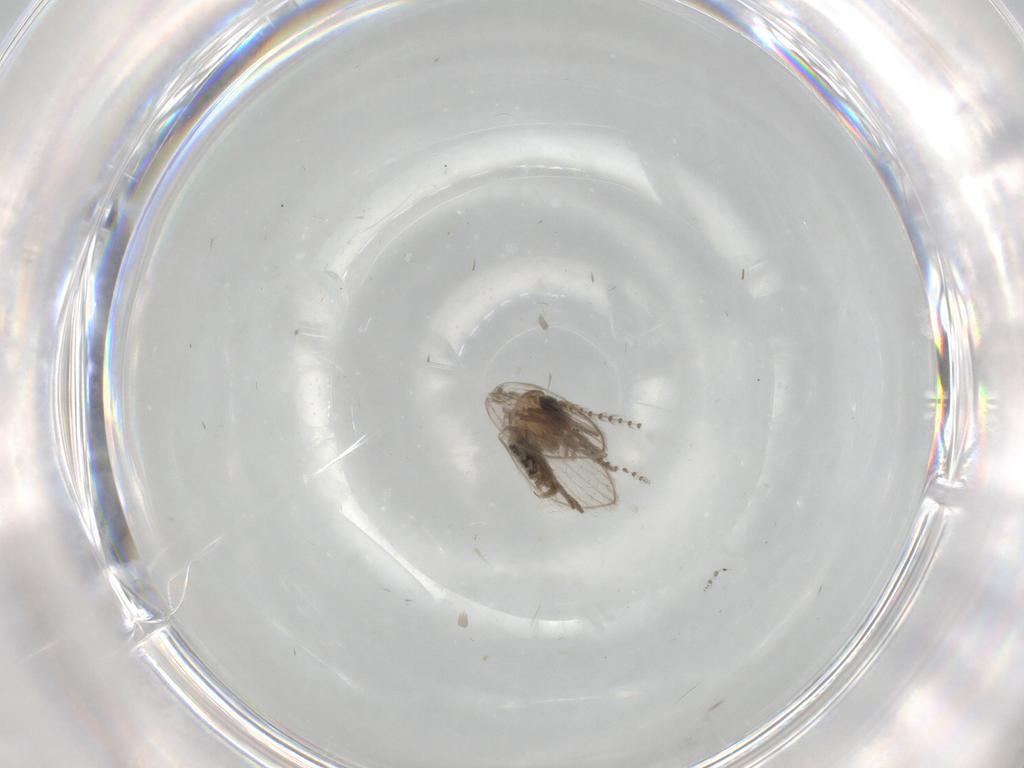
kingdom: Animalia
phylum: Arthropoda
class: Insecta
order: Diptera
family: Psychodidae
